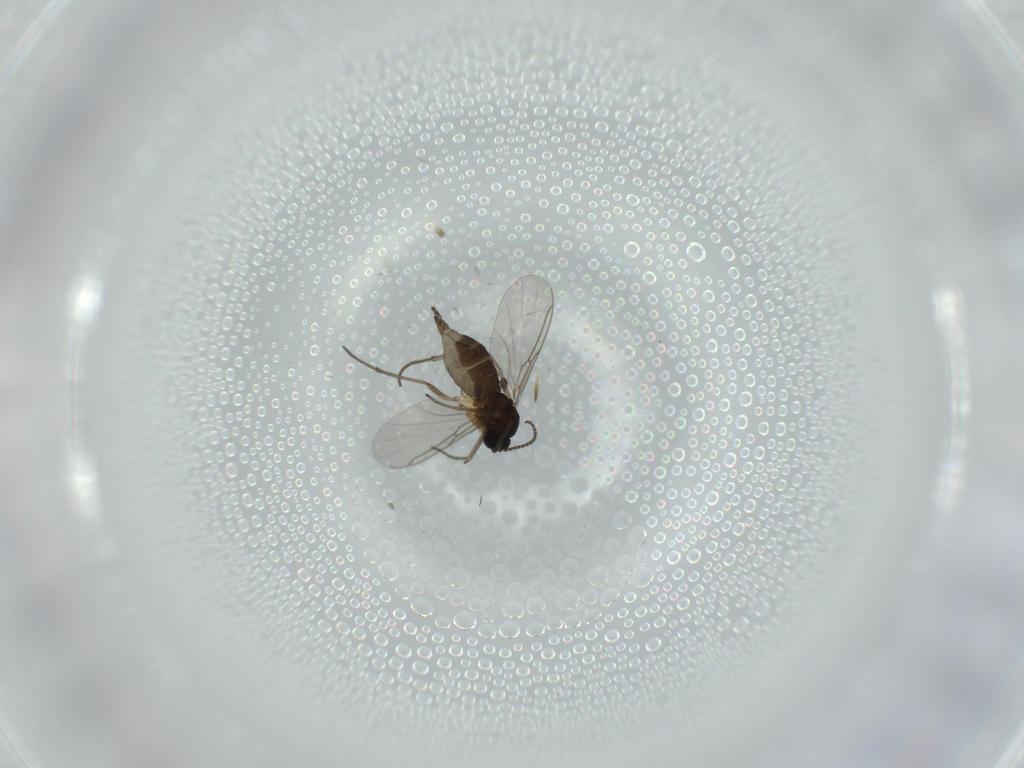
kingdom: Animalia
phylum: Arthropoda
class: Insecta
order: Diptera
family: Sciaridae
